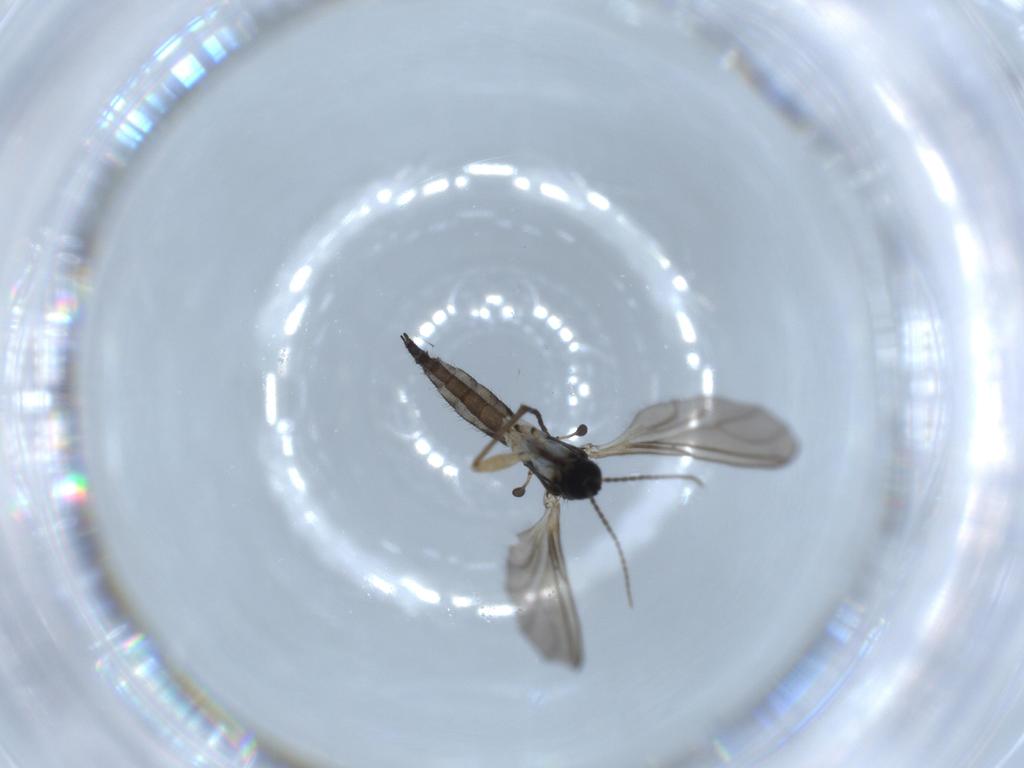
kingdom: Animalia
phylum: Arthropoda
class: Insecta
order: Diptera
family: Sciaridae
